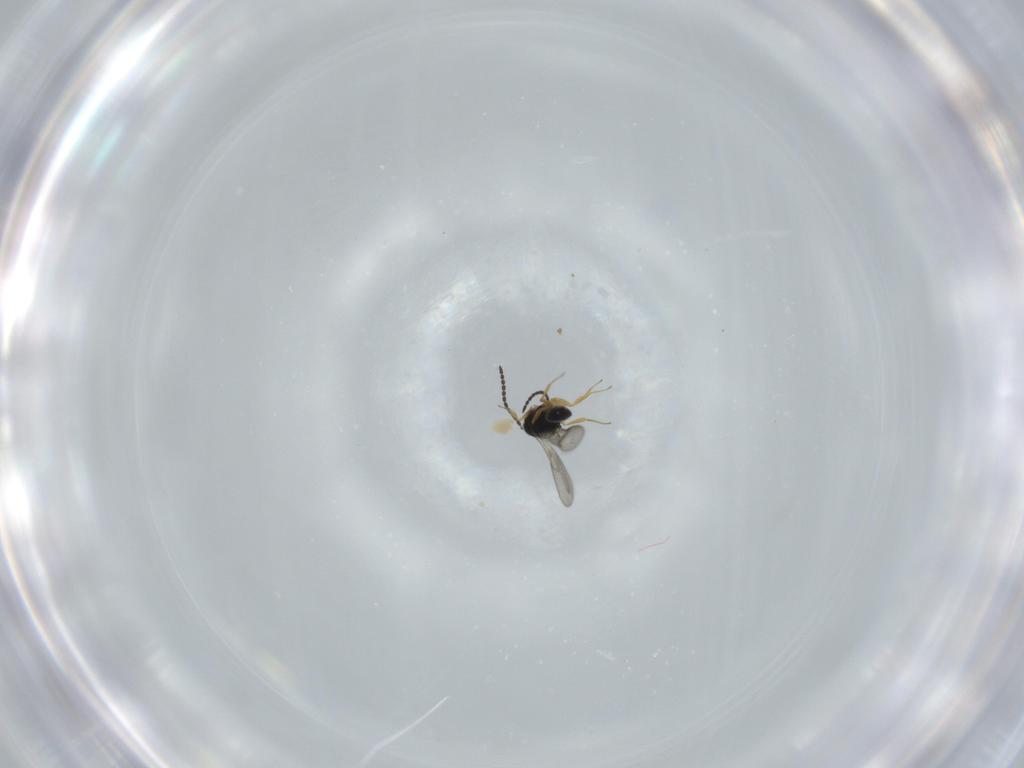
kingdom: Animalia
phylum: Arthropoda
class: Insecta
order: Hymenoptera
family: Scelionidae
